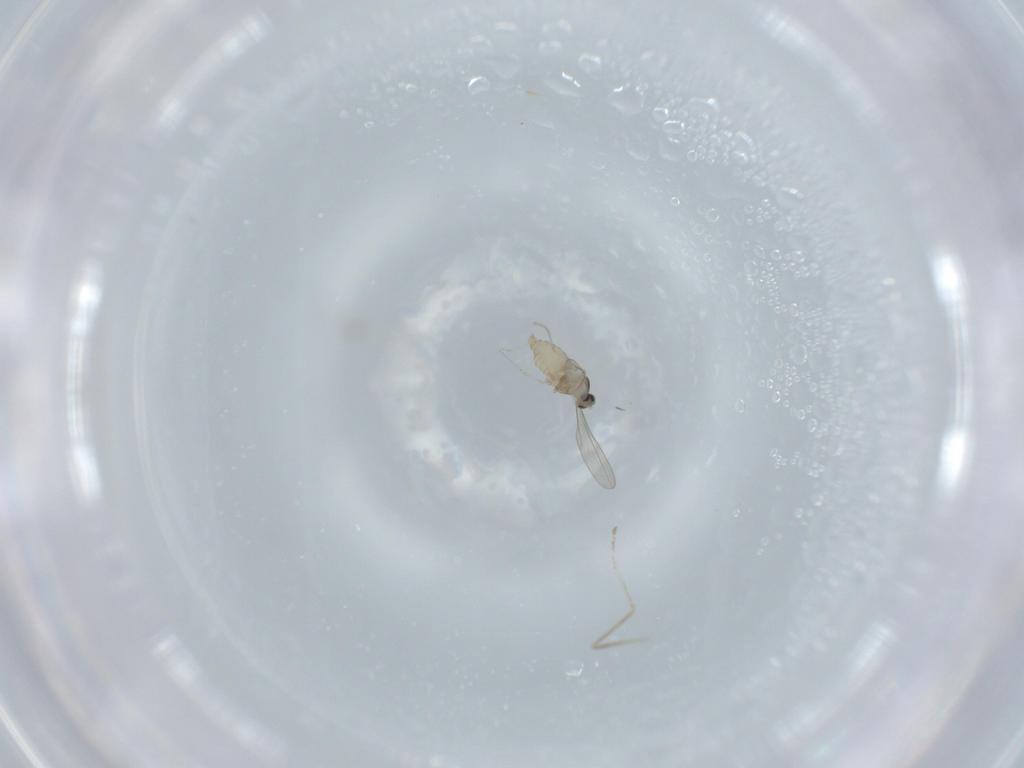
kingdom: Animalia
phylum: Arthropoda
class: Insecta
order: Diptera
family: Cecidomyiidae
